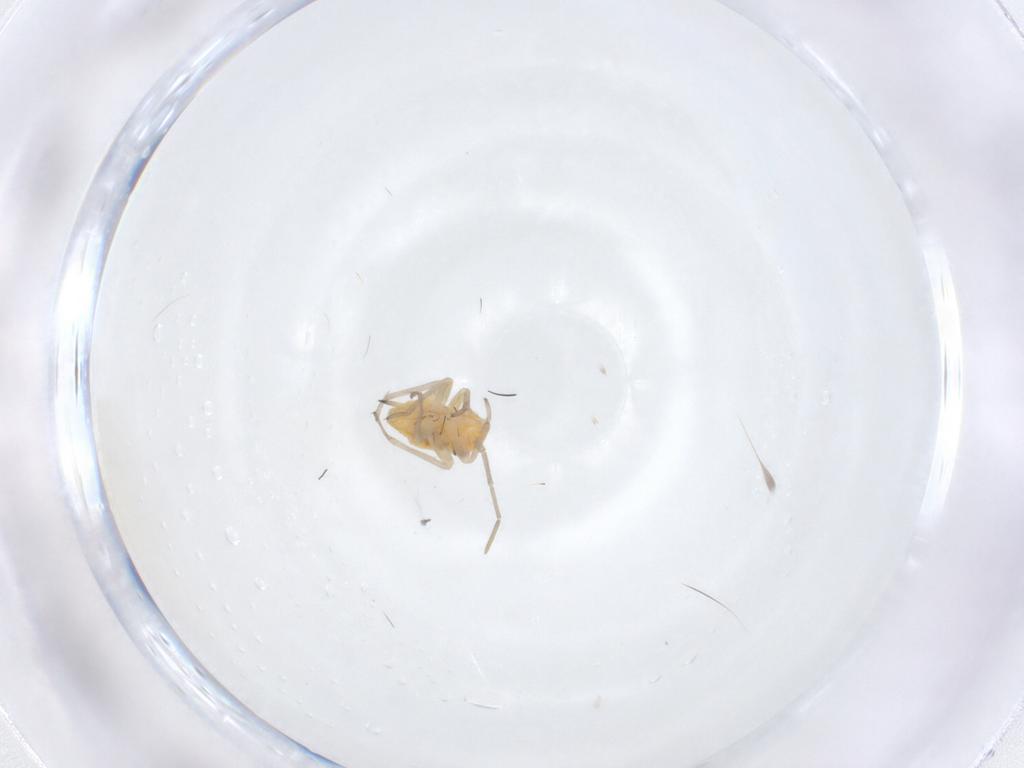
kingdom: Animalia
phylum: Arthropoda
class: Insecta
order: Hemiptera
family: Miridae
